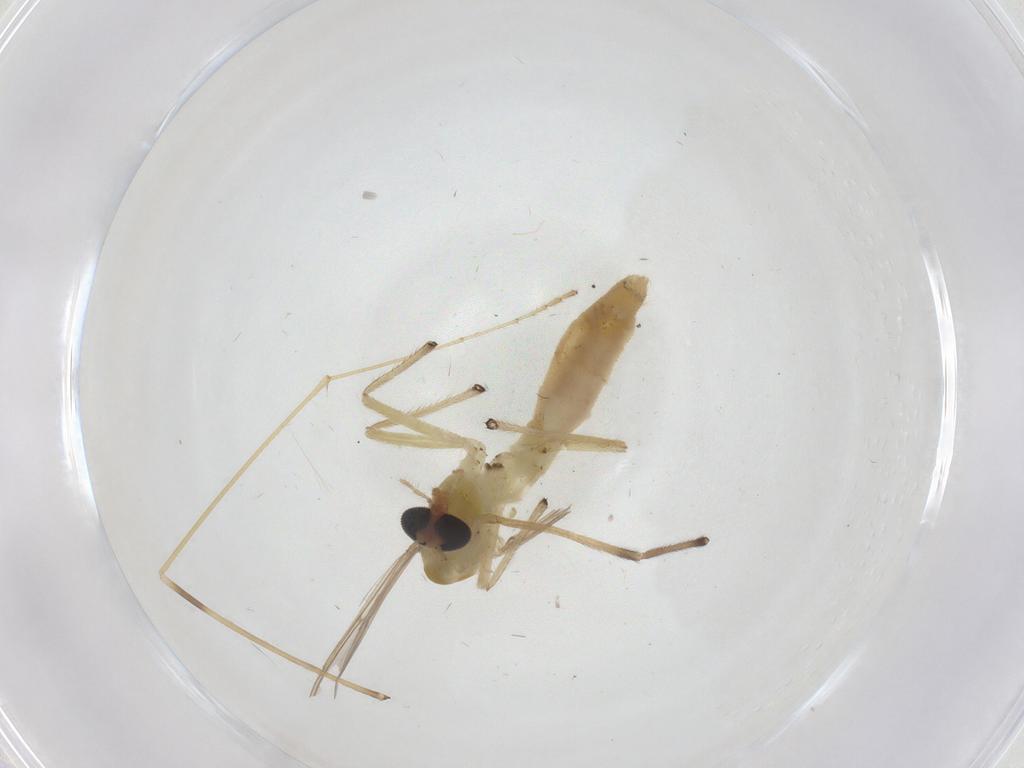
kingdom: Animalia
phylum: Arthropoda
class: Insecta
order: Diptera
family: Chironomidae
